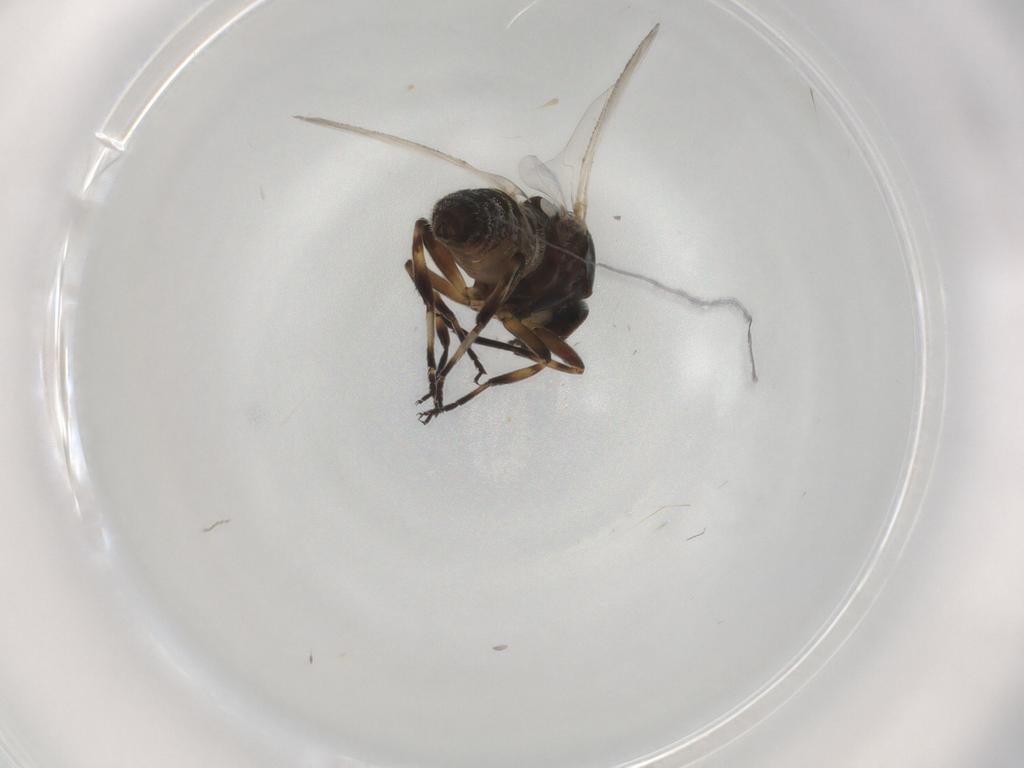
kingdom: Animalia
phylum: Arthropoda
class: Insecta
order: Diptera
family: Pipunculidae
